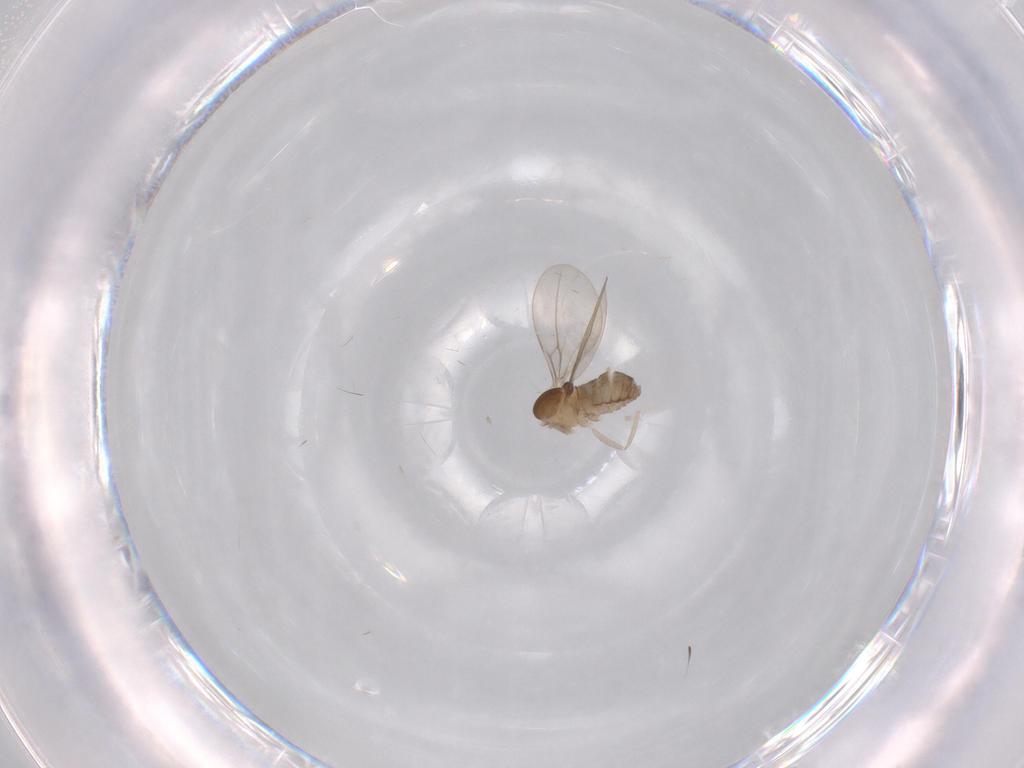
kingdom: Animalia
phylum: Arthropoda
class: Insecta
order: Diptera
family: Cecidomyiidae
